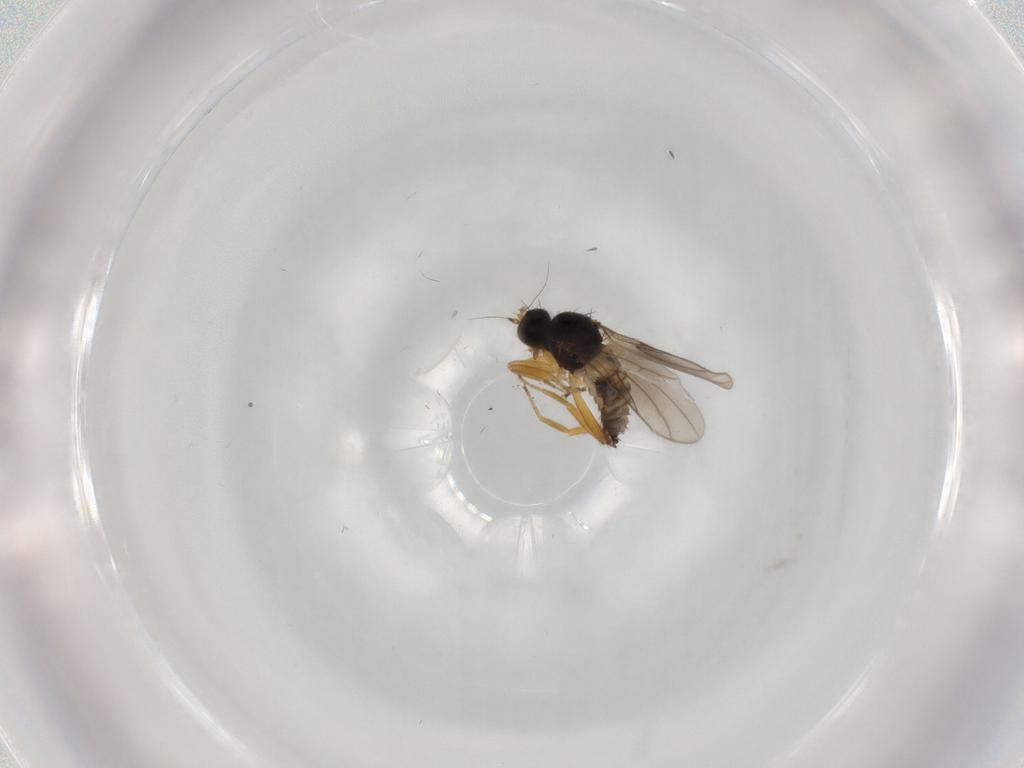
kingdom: Animalia
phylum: Arthropoda
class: Insecta
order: Diptera
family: Hybotidae
